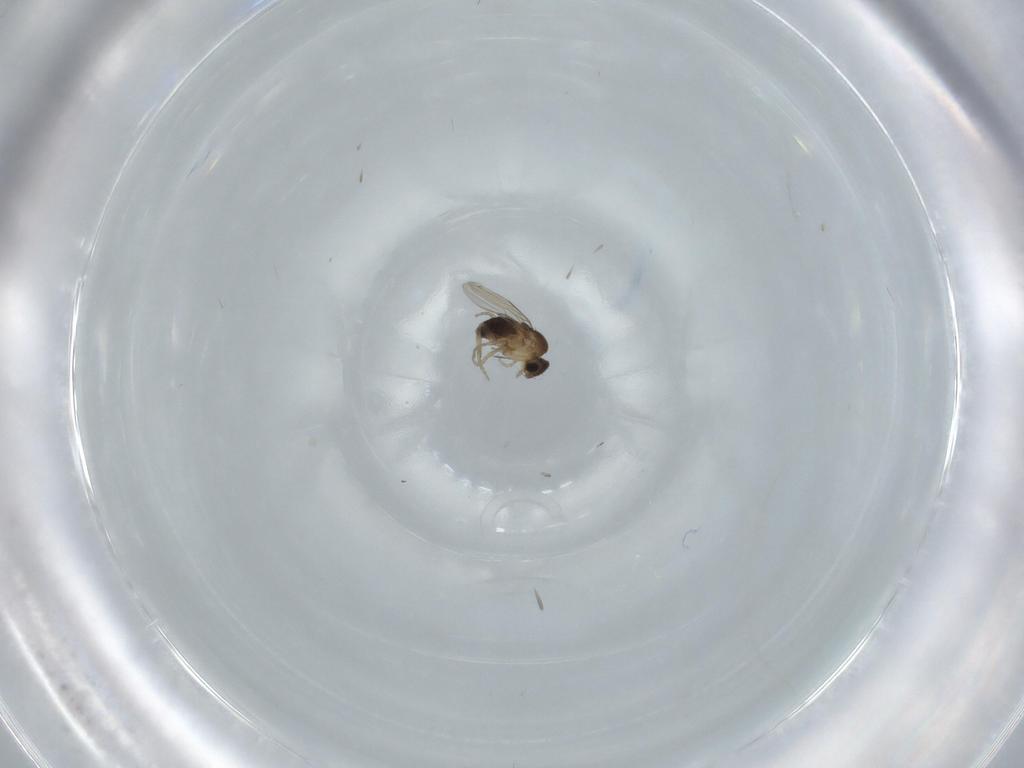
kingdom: Animalia
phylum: Arthropoda
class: Insecta
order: Diptera
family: Phoridae
